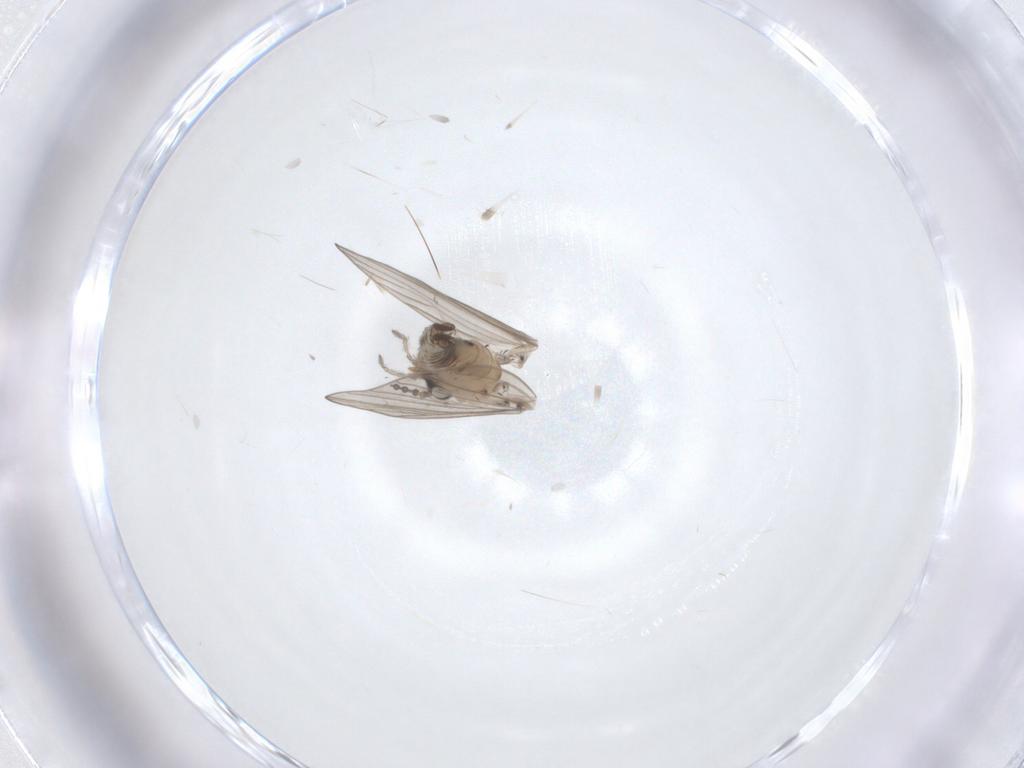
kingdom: Animalia
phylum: Arthropoda
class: Insecta
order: Diptera
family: Psychodidae
